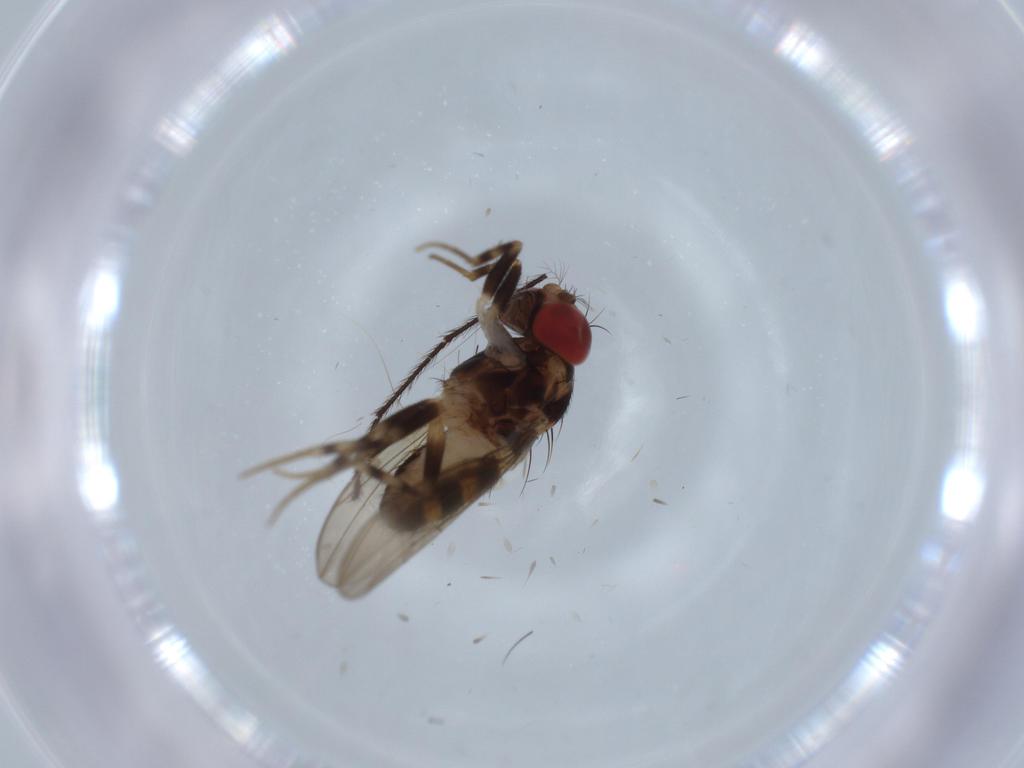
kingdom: Animalia
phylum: Arthropoda
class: Insecta
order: Diptera
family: Drosophilidae
